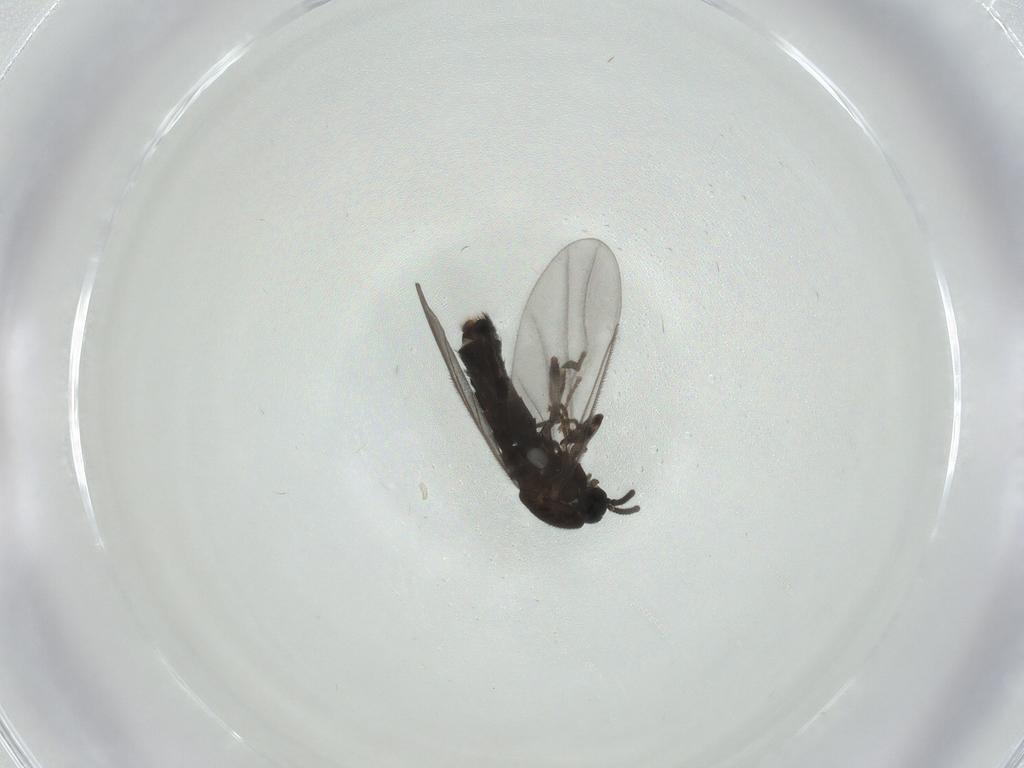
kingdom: Animalia
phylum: Arthropoda
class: Insecta
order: Diptera
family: Scatopsidae
